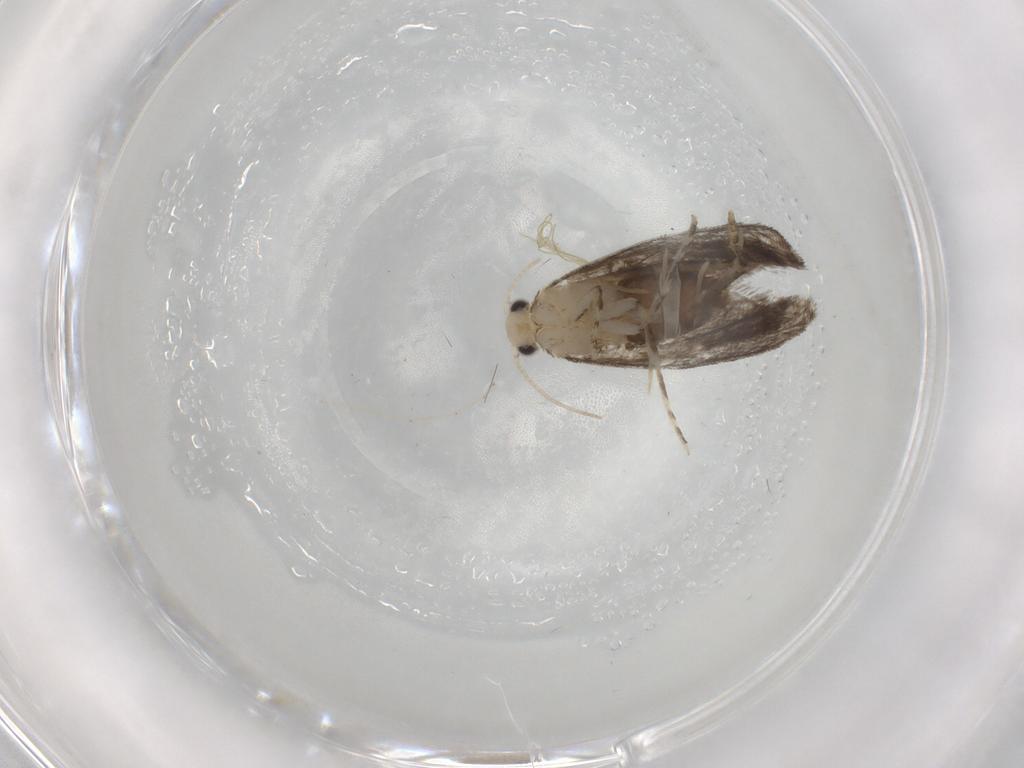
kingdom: Animalia
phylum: Arthropoda
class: Insecta
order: Lepidoptera
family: Tineidae
